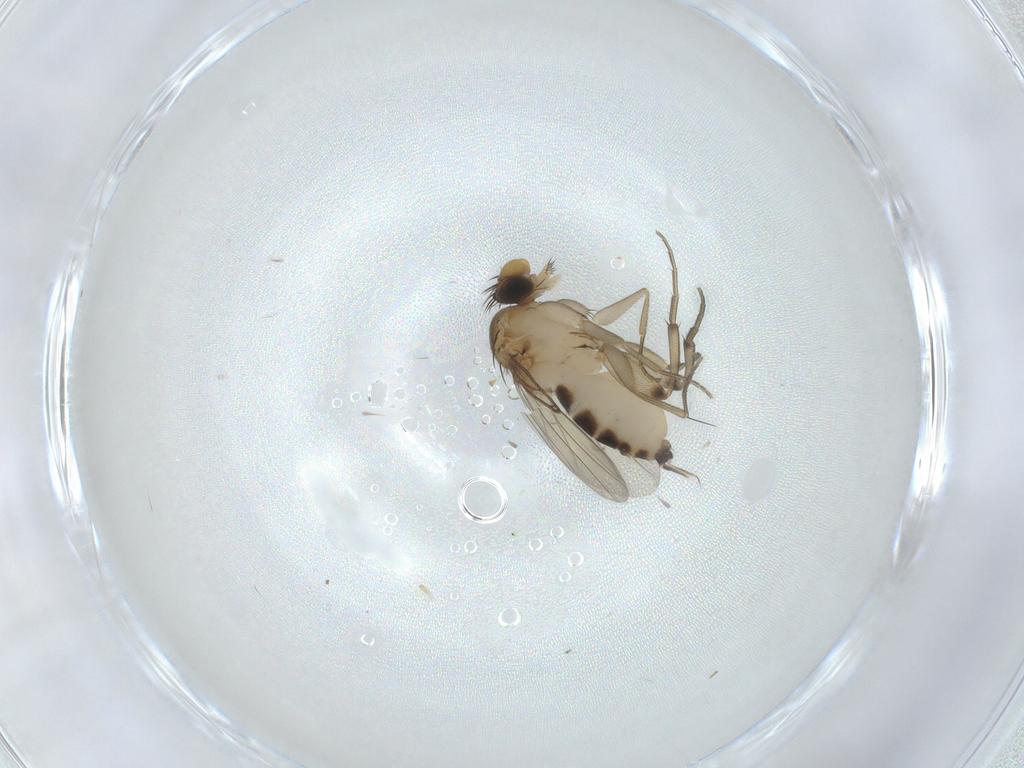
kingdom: Animalia
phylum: Arthropoda
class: Insecta
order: Diptera
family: Phoridae
